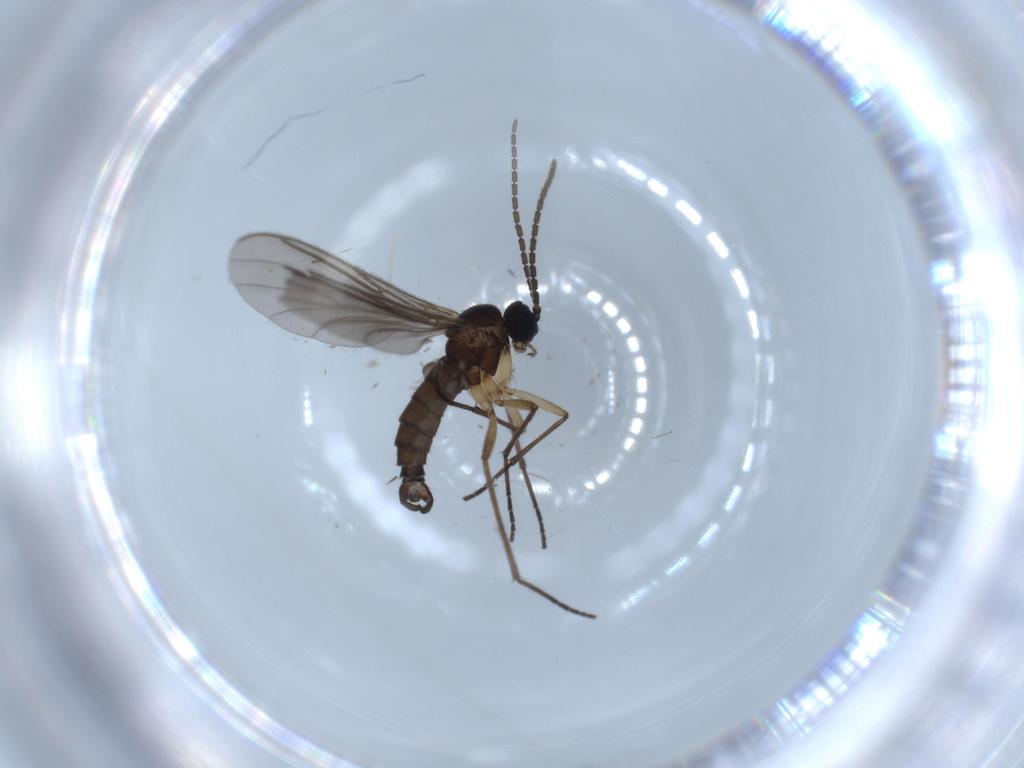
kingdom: Animalia
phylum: Arthropoda
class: Insecta
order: Diptera
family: Sciaridae
